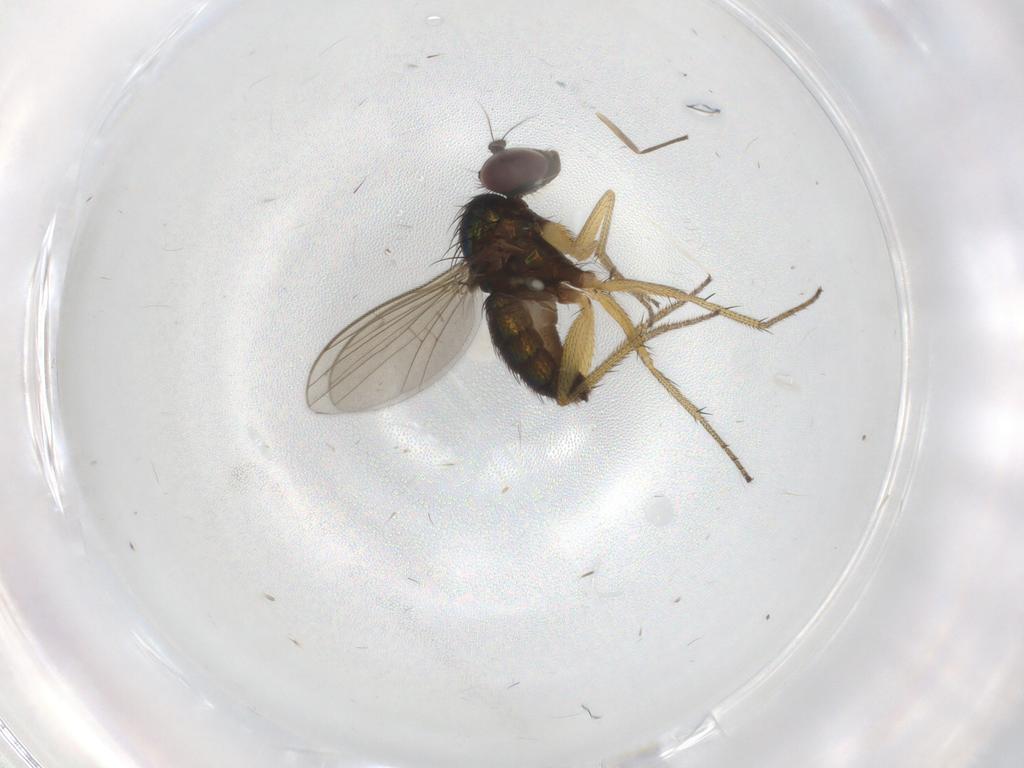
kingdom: Animalia
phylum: Arthropoda
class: Insecta
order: Diptera
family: Dolichopodidae
